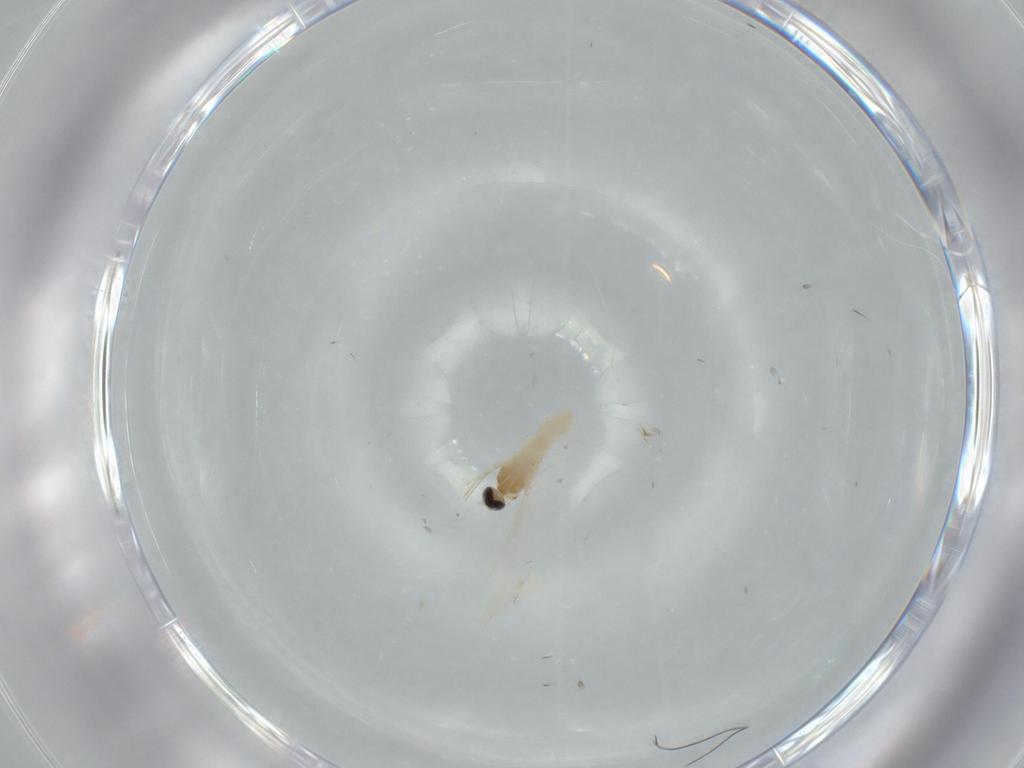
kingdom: Animalia
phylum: Arthropoda
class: Insecta
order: Diptera
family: Cecidomyiidae
